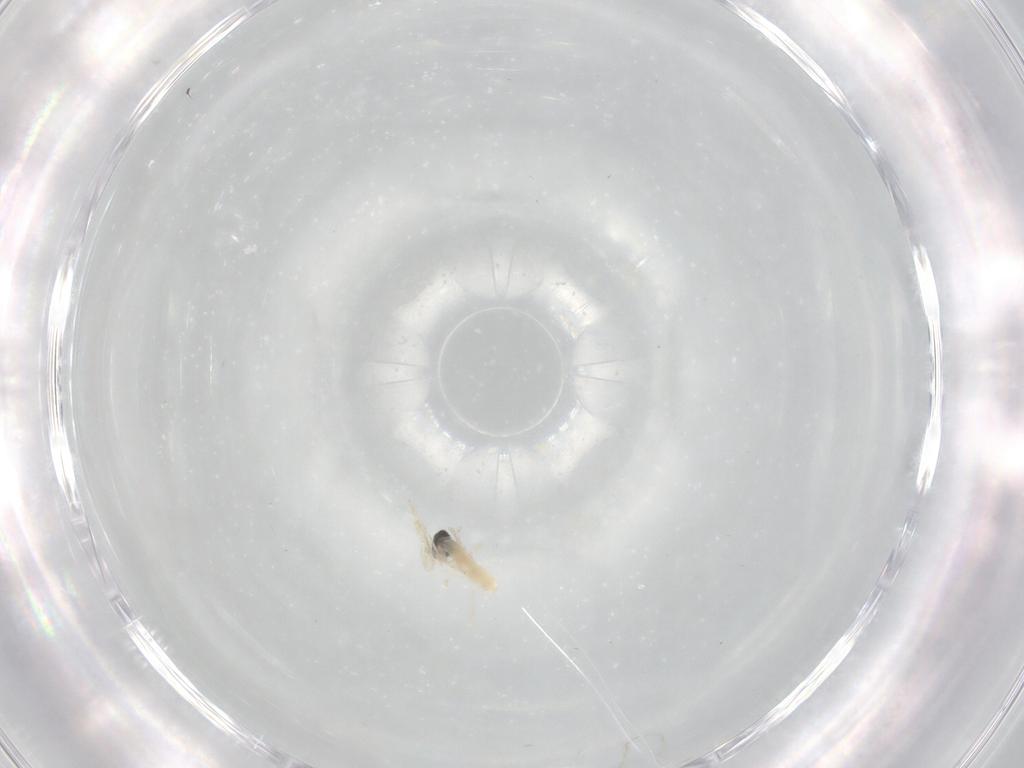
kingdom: Animalia
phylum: Arthropoda
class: Insecta
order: Diptera
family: Cecidomyiidae
